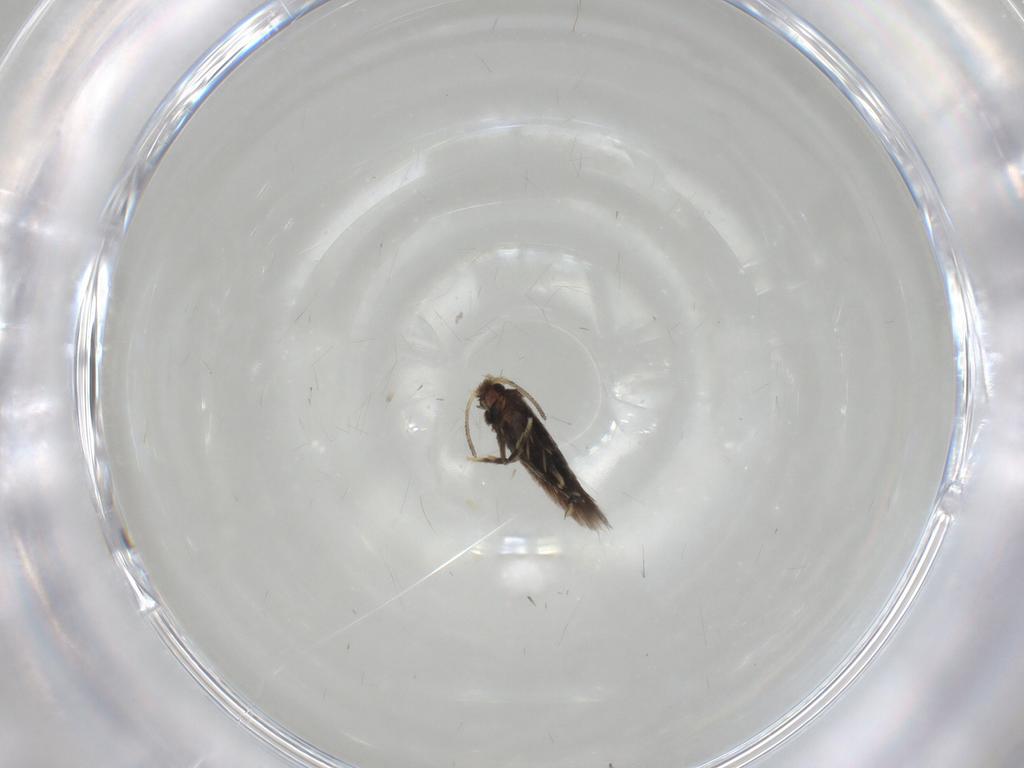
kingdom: Animalia
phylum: Arthropoda
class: Insecta
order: Lepidoptera
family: Nepticulidae
